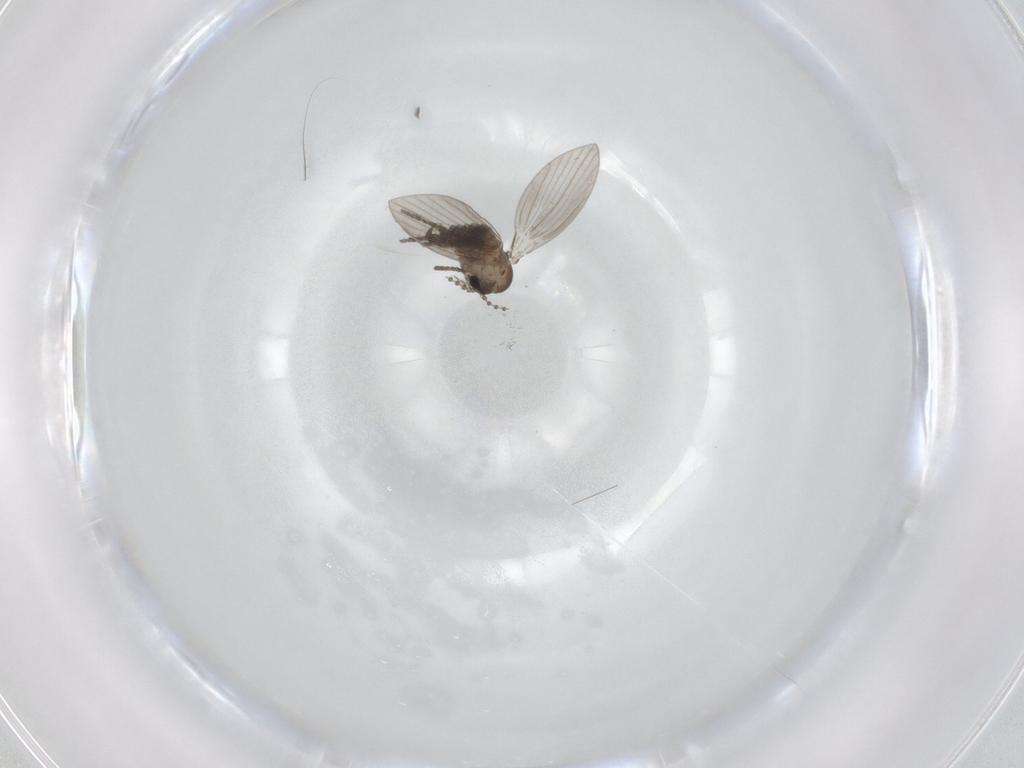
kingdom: Animalia
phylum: Arthropoda
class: Insecta
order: Diptera
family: Psychodidae
